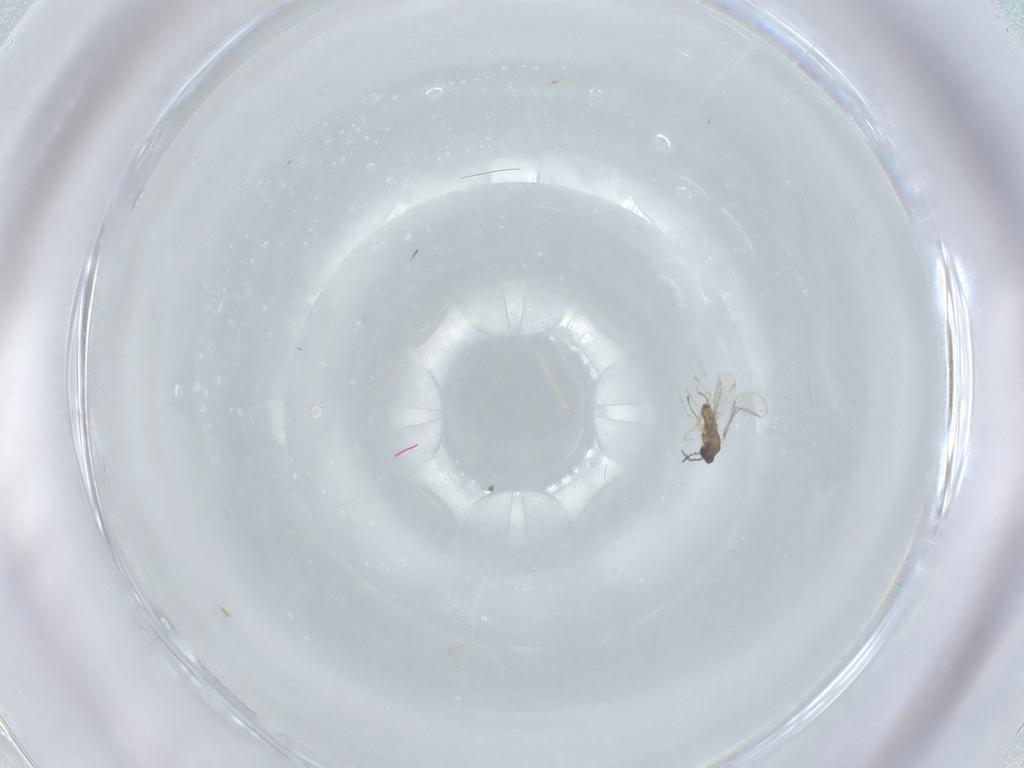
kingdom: Animalia
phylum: Arthropoda
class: Insecta
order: Diptera
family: Cecidomyiidae
